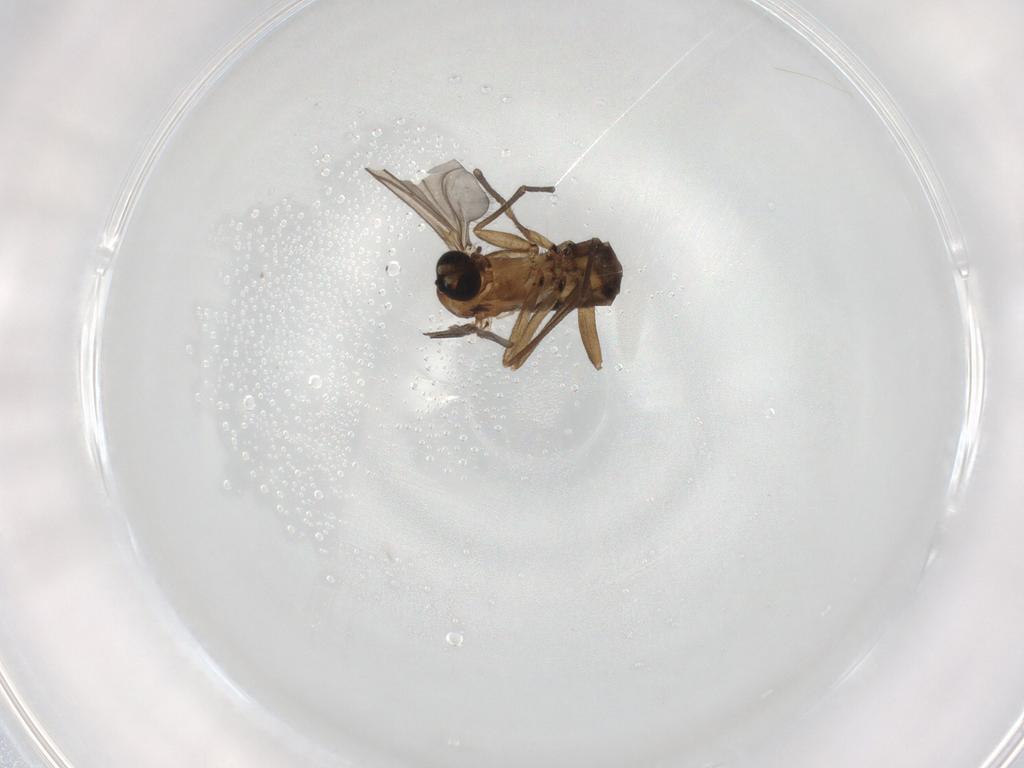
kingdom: Animalia
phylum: Arthropoda
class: Insecta
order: Diptera
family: Sciaridae
